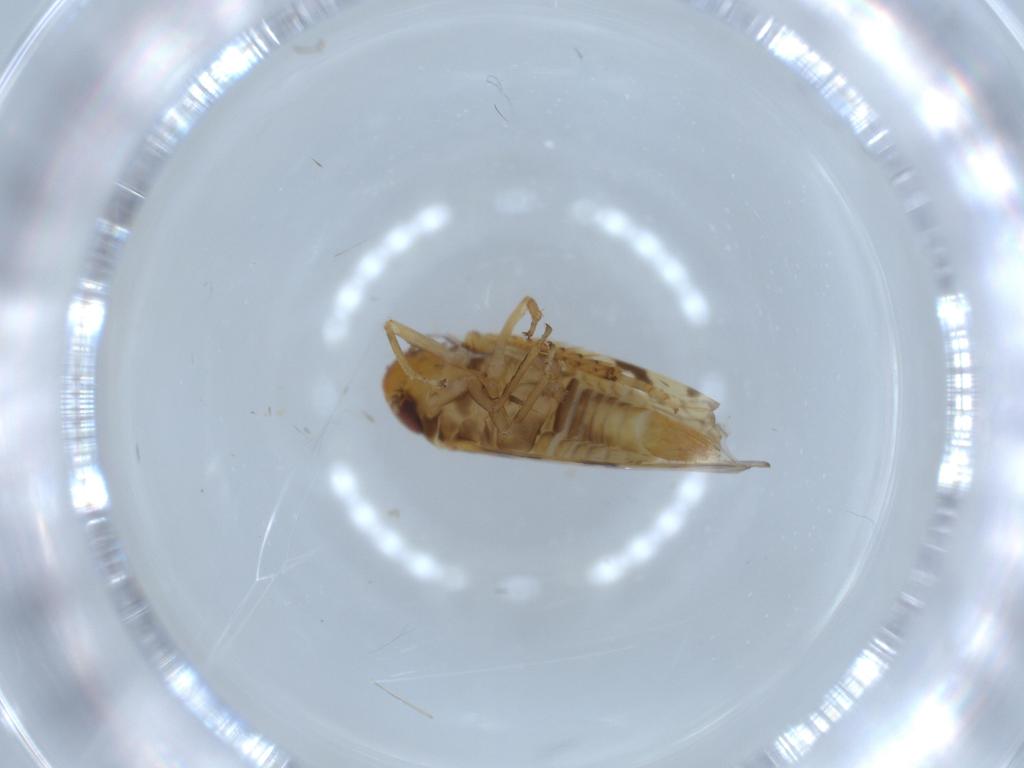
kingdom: Animalia
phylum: Arthropoda
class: Insecta
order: Hemiptera
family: Cicadellidae
